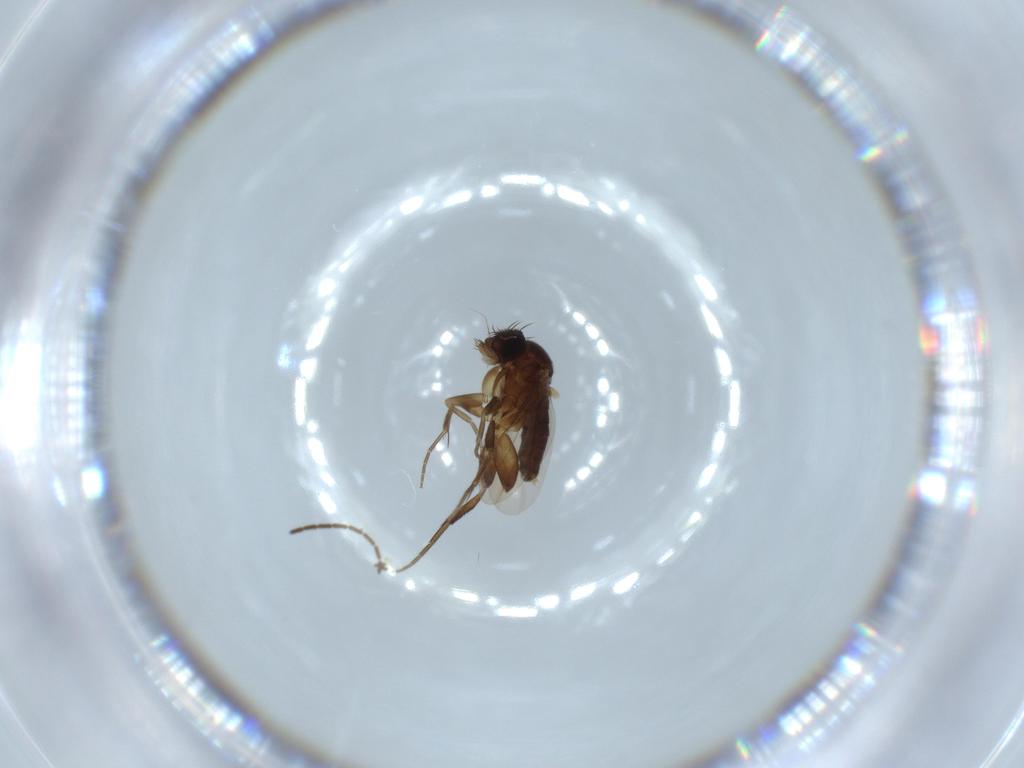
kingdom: Animalia
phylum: Arthropoda
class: Insecta
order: Diptera
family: Phoridae
